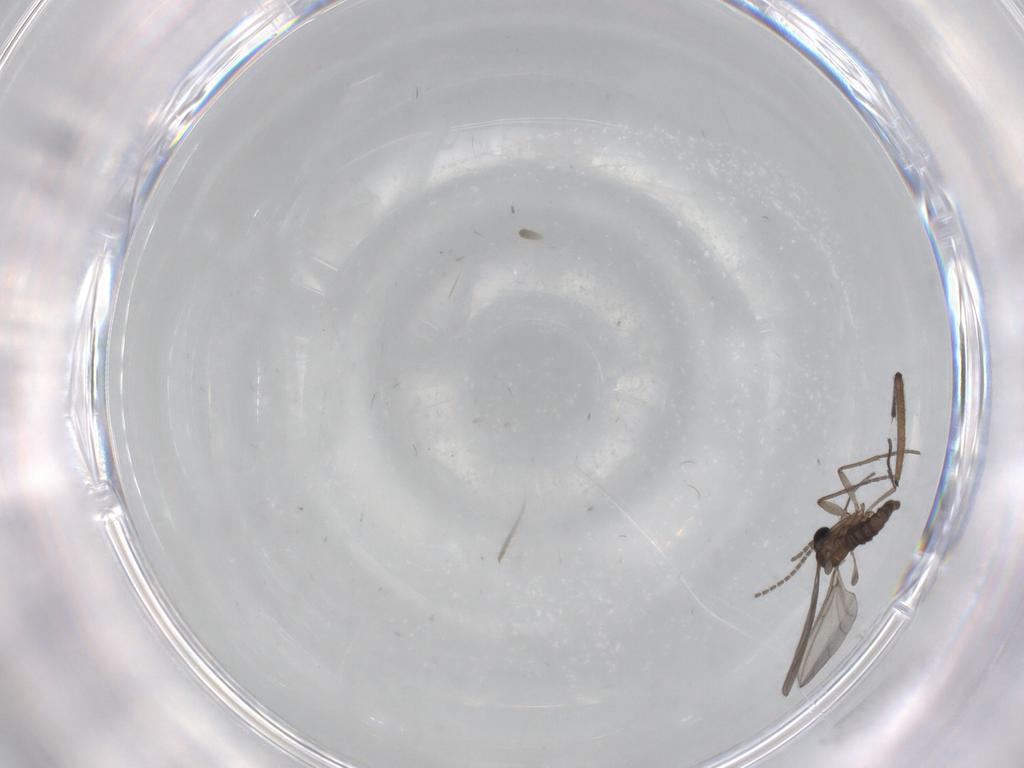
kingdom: Animalia
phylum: Arthropoda
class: Insecta
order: Diptera
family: Sciaridae
